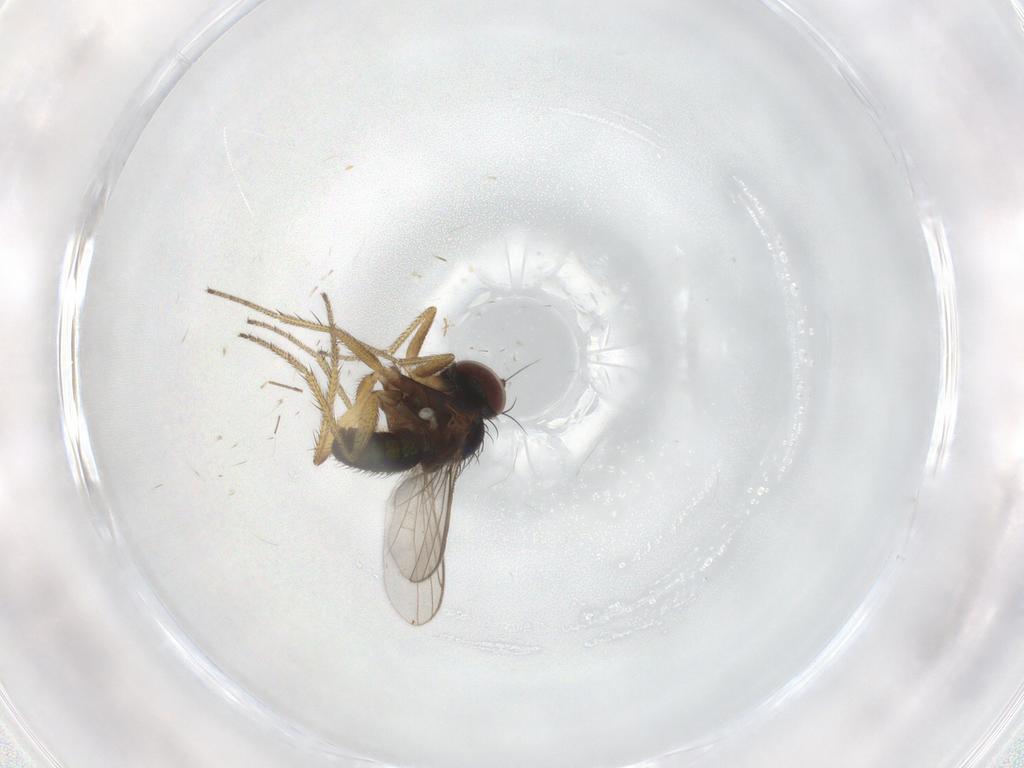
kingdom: Animalia
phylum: Arthropoda
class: Insecta
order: Diptera
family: Dolichopodidae
